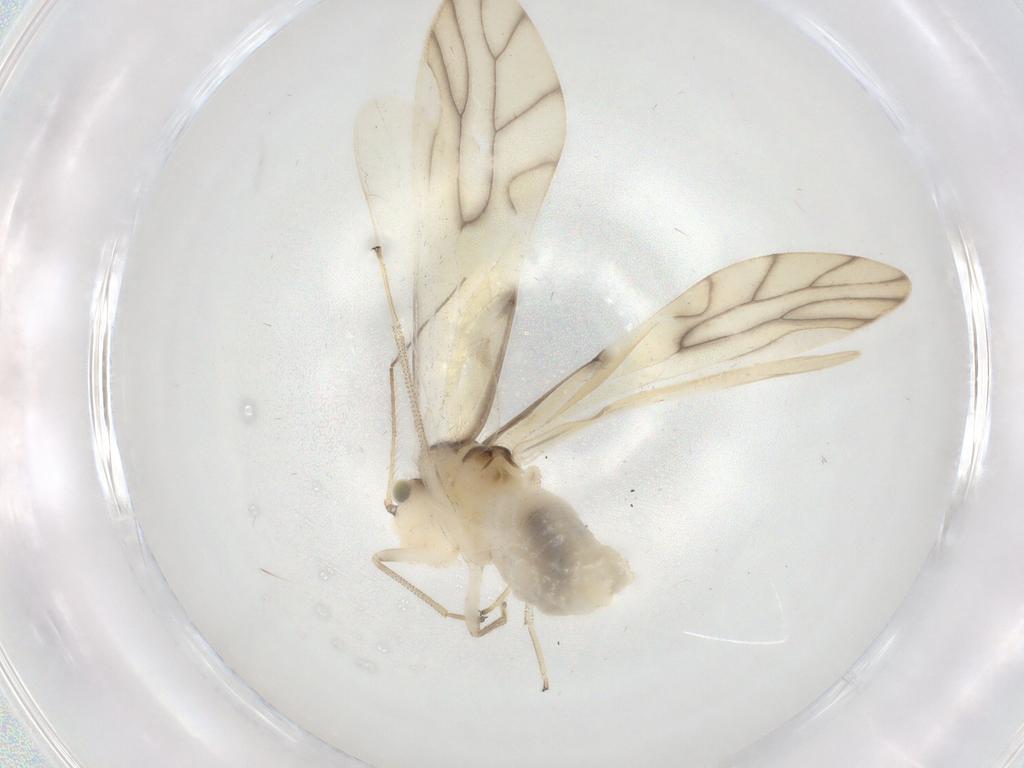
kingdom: Animalia
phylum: Arthropoda
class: Insecta
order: Psocodea
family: Caeciliusidae
